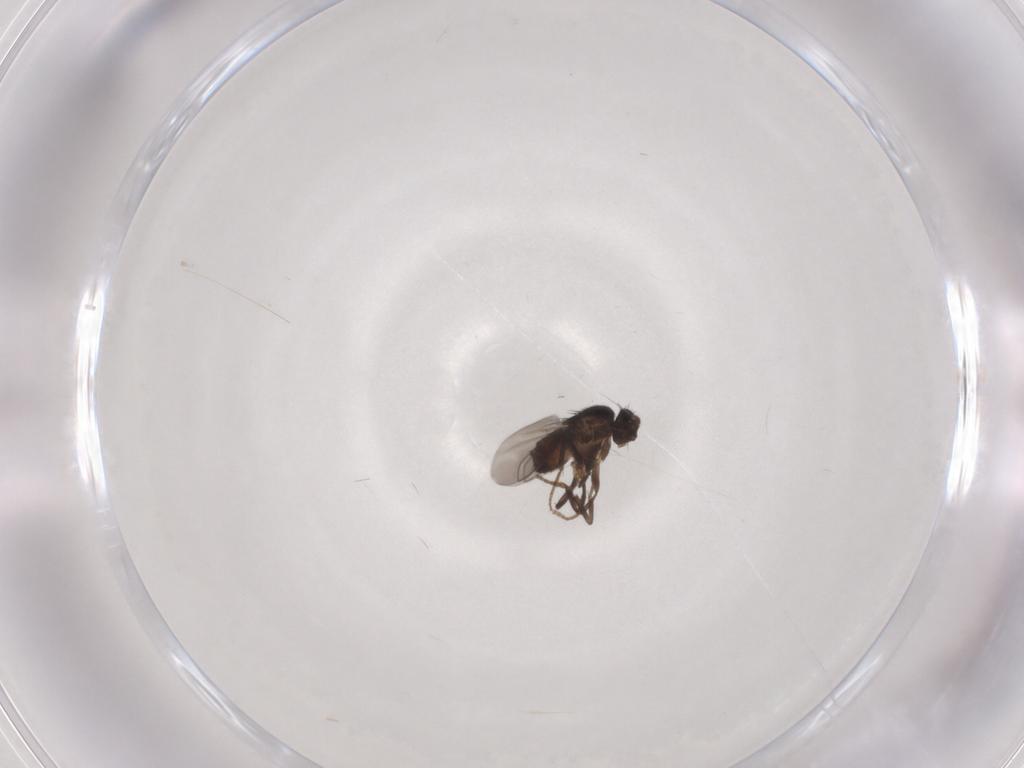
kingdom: Animalia
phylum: Arthropoda
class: Insecta
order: Diptera
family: Sphaeroceridae
